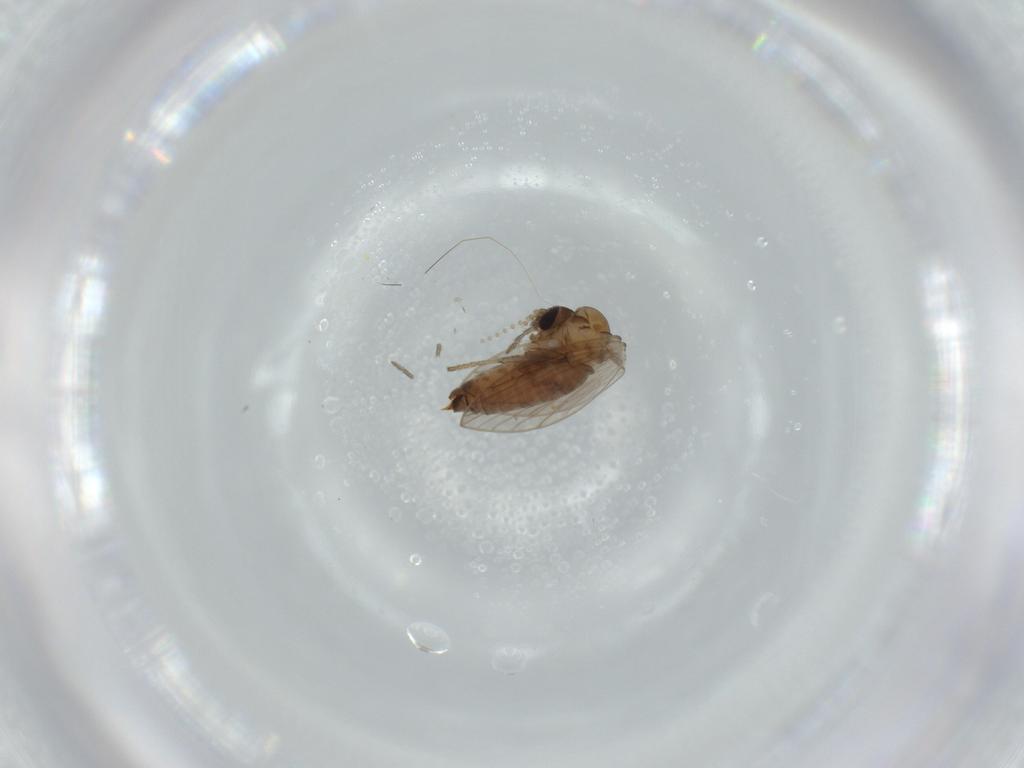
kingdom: Animalia
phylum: Arthropoda
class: Insecta
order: Diptera
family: Psychodidae
